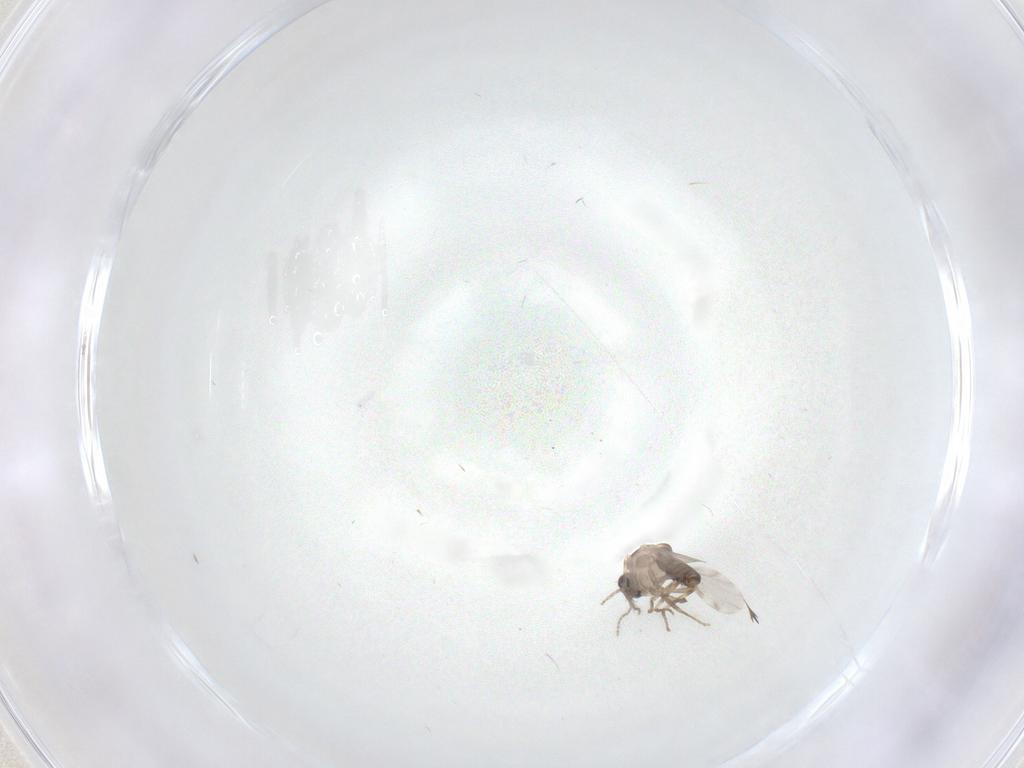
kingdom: Animalia
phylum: Arthropoda
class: Insecta
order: Diptera
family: Ceratopogonidae
